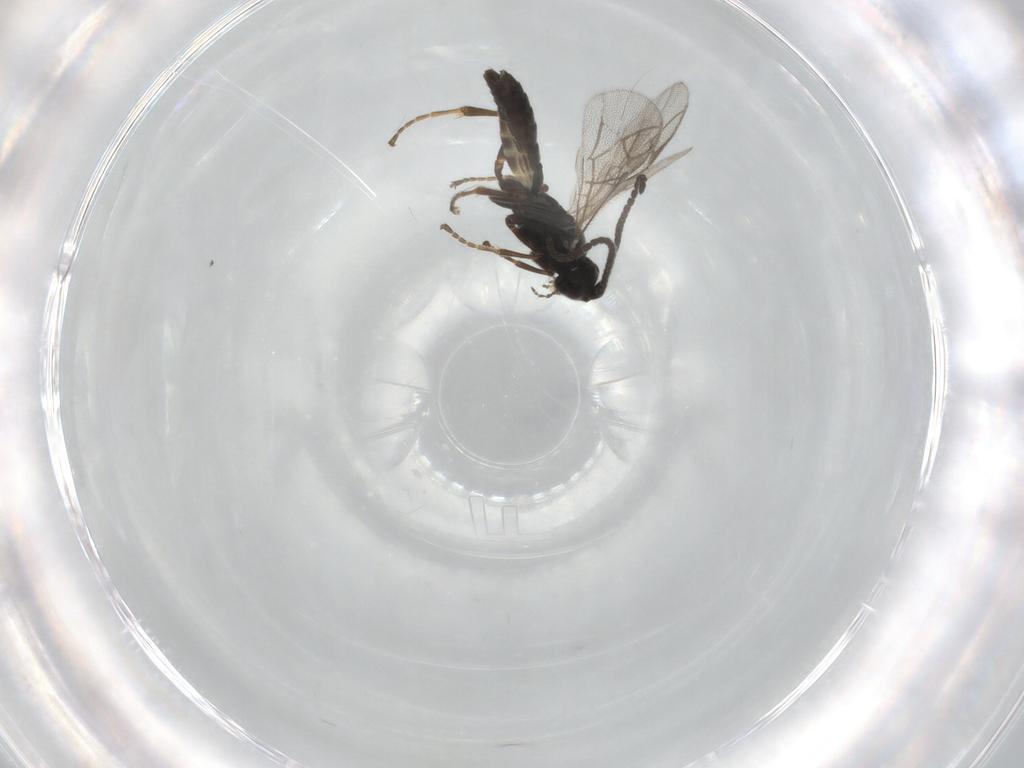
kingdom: Animalia
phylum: Arthropoda
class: Insecta
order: Hymenoptera
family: Ichneumonidae
